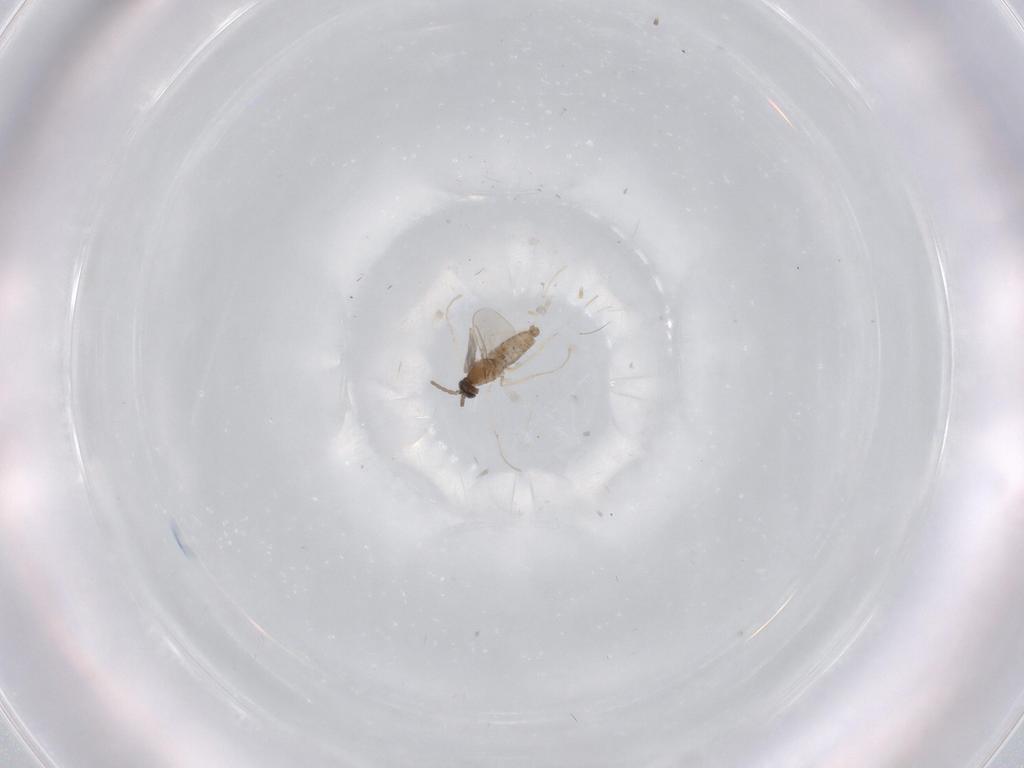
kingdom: Animalia
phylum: Arthropoda
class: Insecta
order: Diptera
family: Cecidomyiidae
